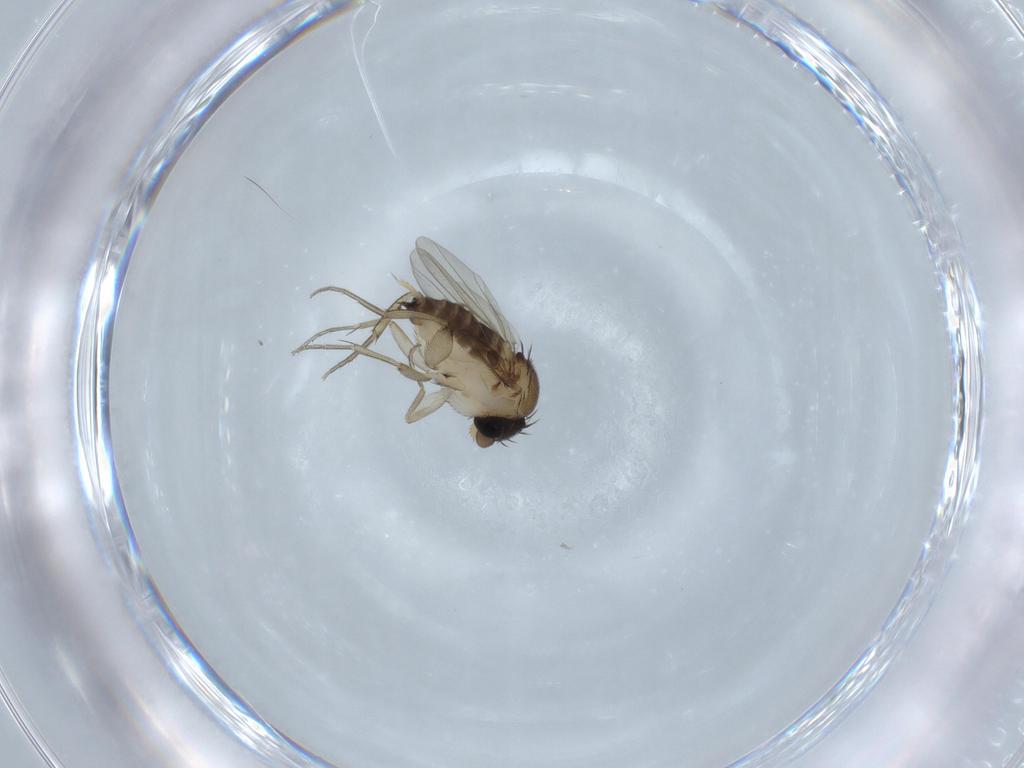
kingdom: Animalia
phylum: Arthropoda
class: Insecta
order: Diptera
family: Phoridae
